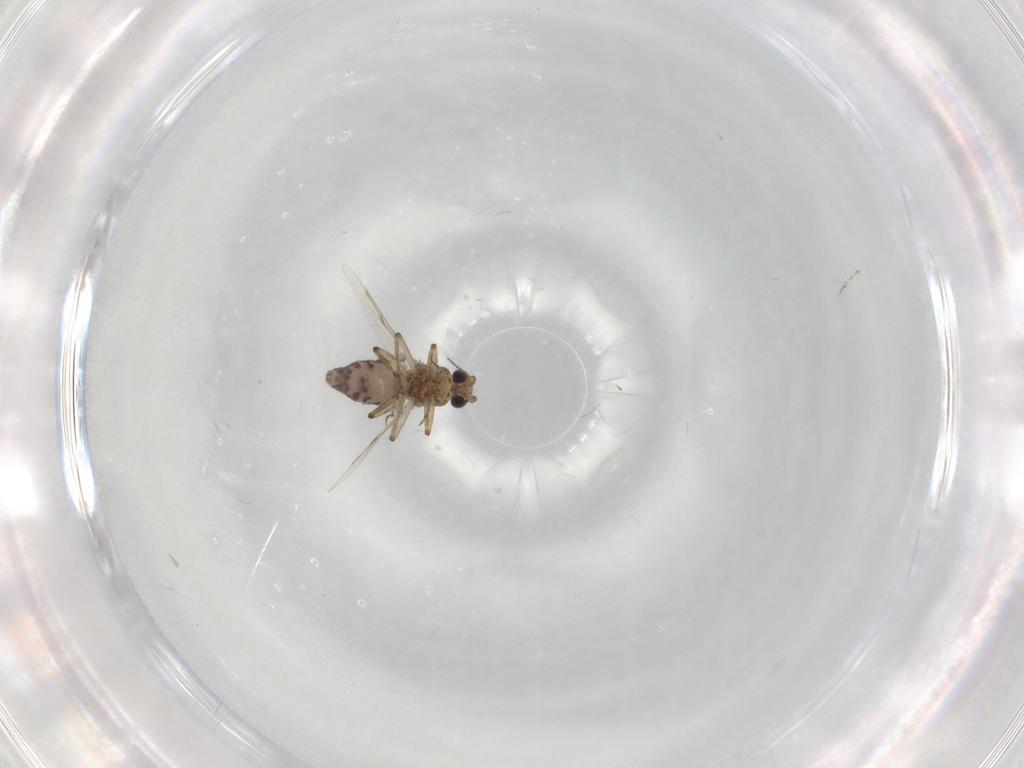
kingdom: Animalia
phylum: Arthropoda
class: Insecta
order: Diptera
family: Ceratopogonidae
